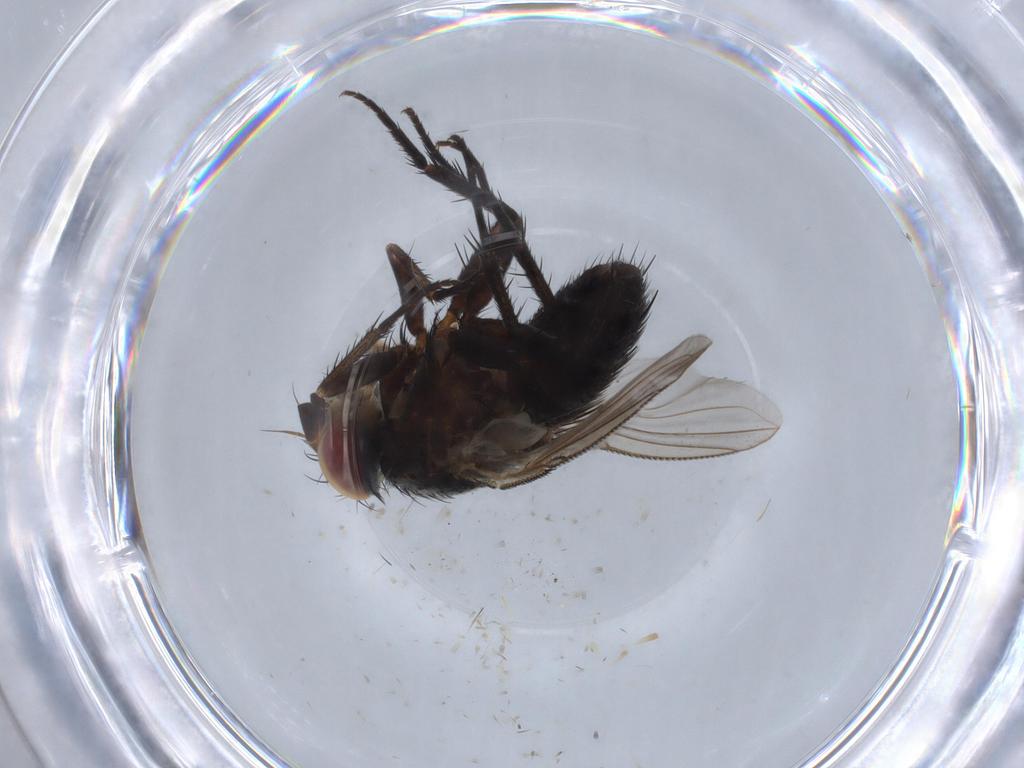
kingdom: Animalia
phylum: Arthropoda
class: Insecta
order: Diptera
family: Tachinidae
